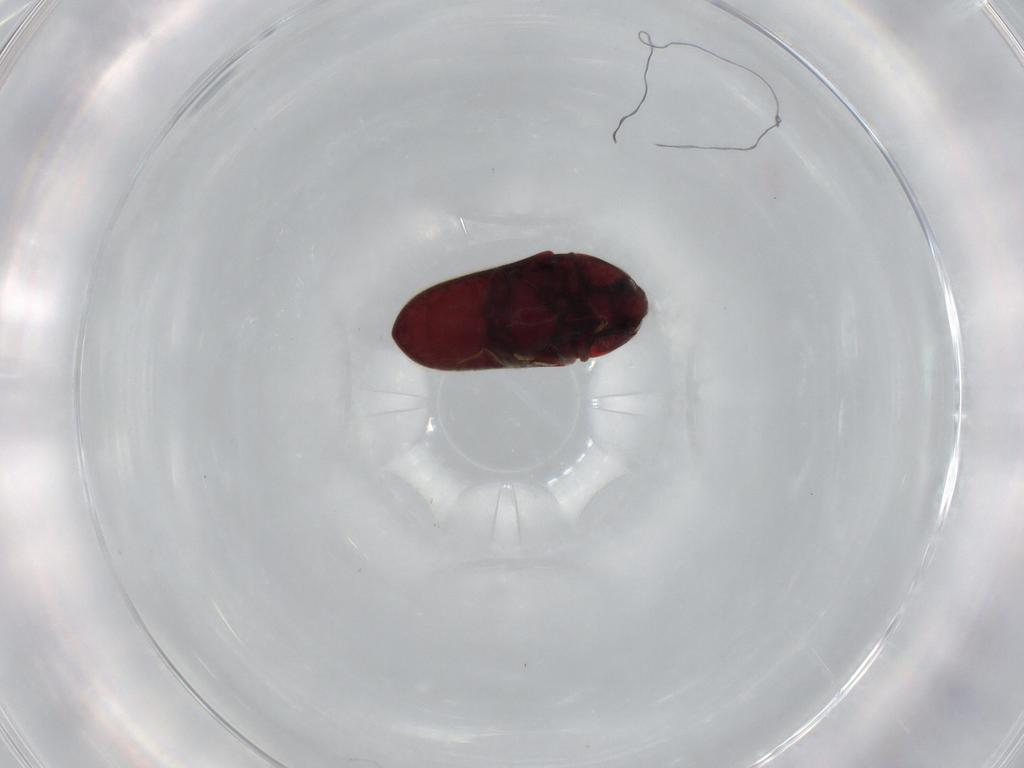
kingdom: Animalia
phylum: Arthropoda
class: Insecta
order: Coleoptera
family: Throscidae
